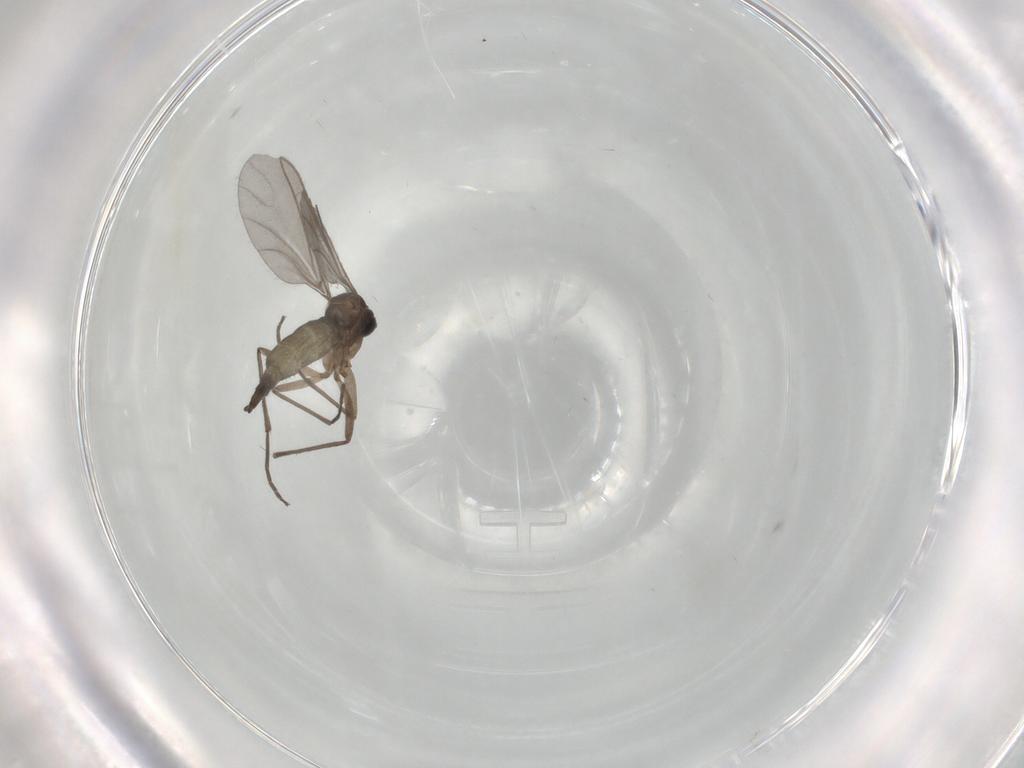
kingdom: Animalia
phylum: Arthropoda
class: Insecta
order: Diptera
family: Sciaridae
